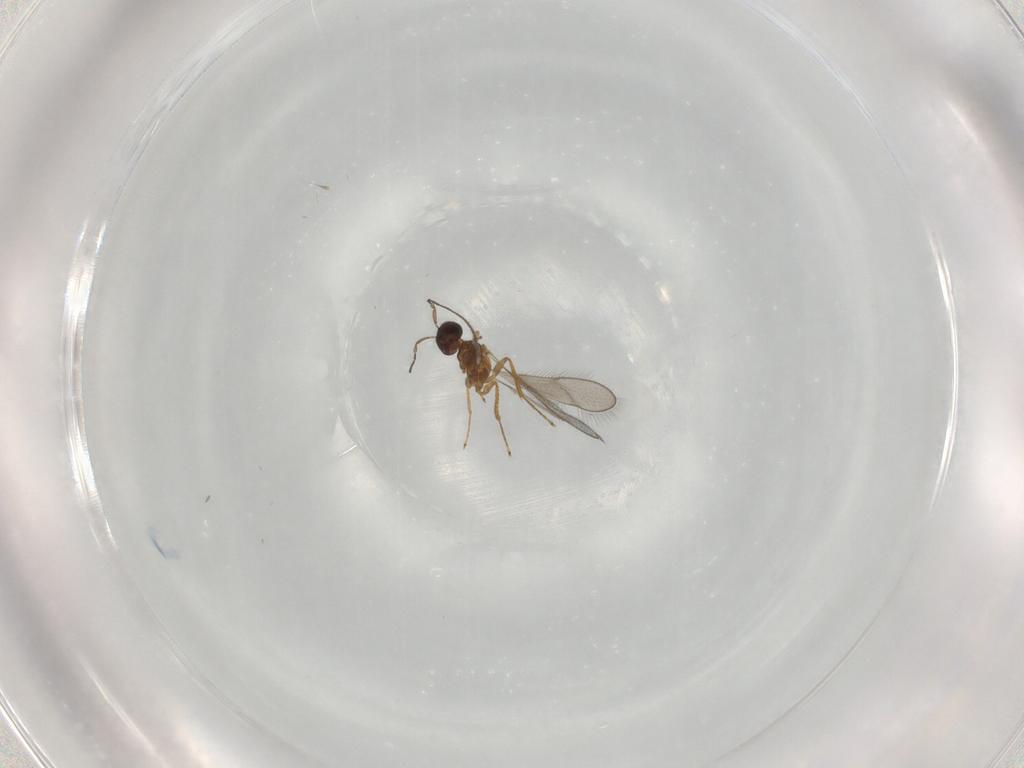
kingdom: Animalia
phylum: Arthropoda
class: Insecta
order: Hymenoptera
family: Mymaridae
